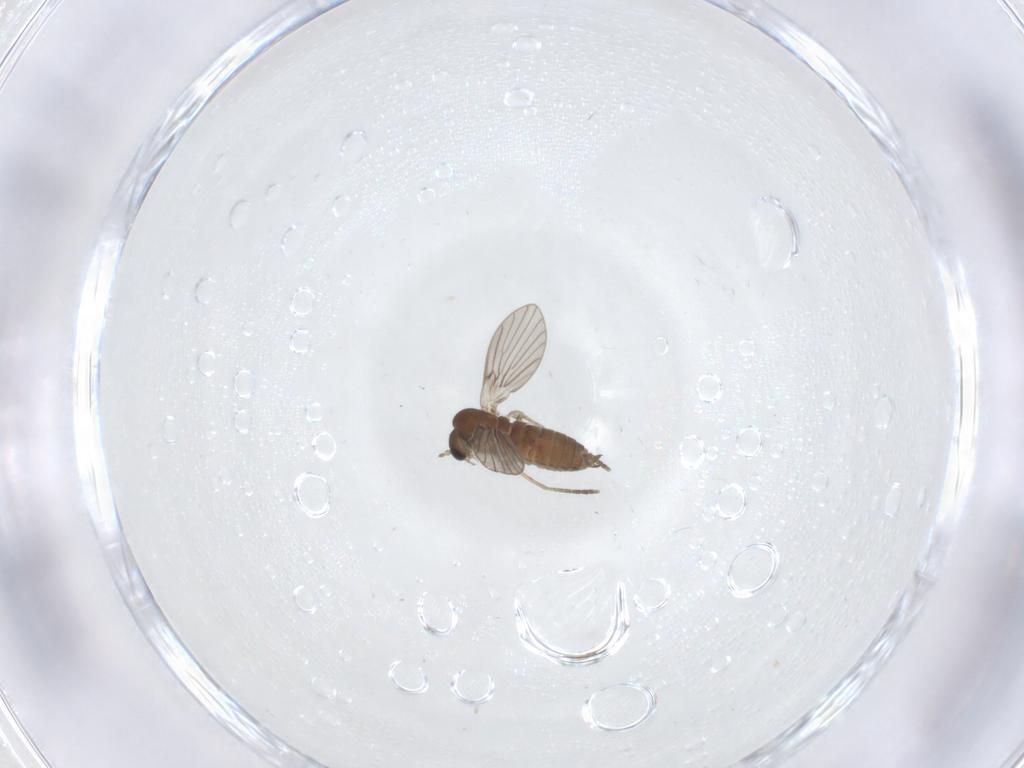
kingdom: Animalia
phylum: Arthropoda
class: Insecta
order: Diptera
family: Psychodidae
